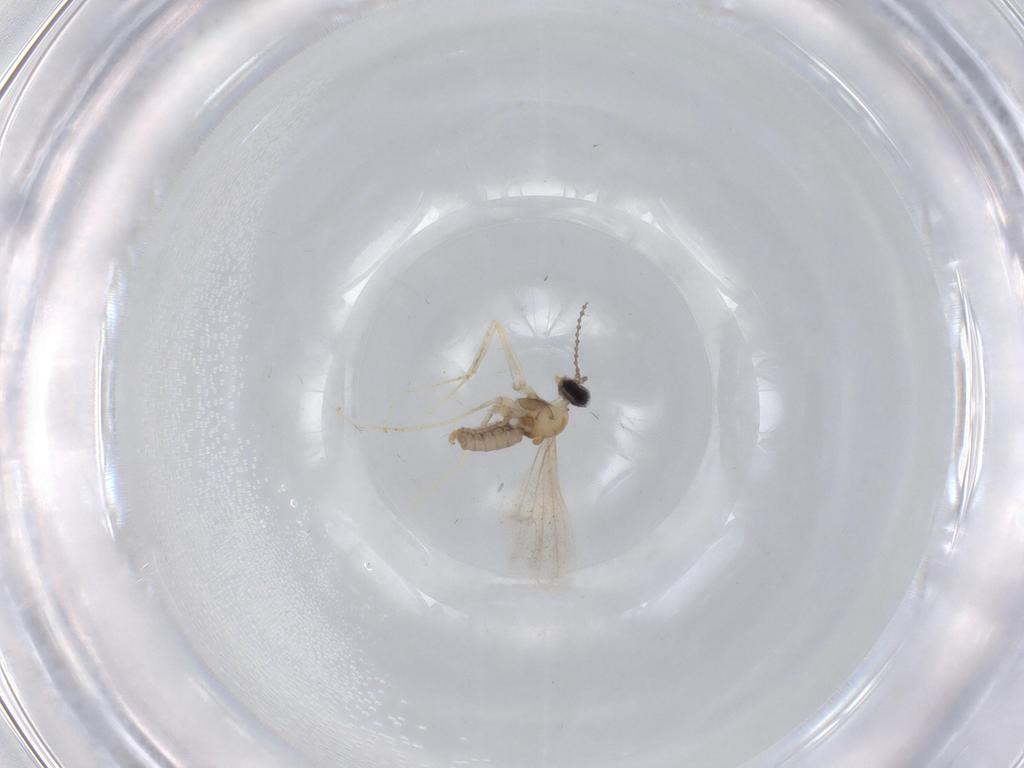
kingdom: Animalia
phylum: Arthropoda
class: Insecta
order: Diptera
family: Cecidomyiidae
